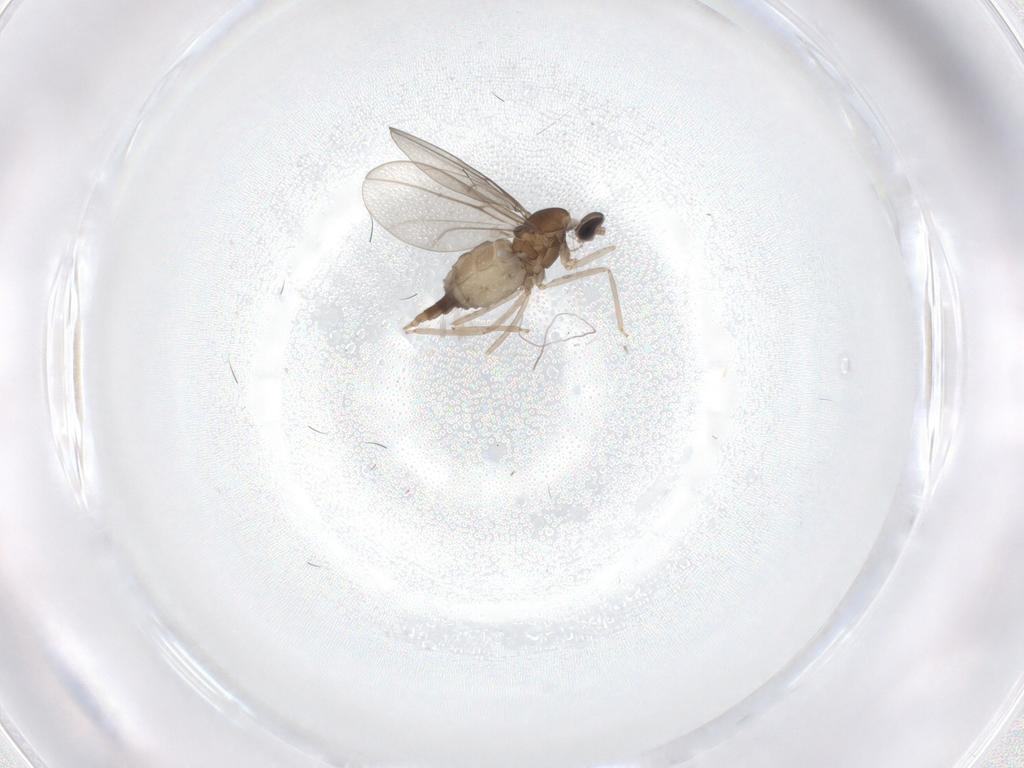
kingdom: Animalia
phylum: Arthropoda
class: Insecta
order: Diptera
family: Cecidomyiidae
